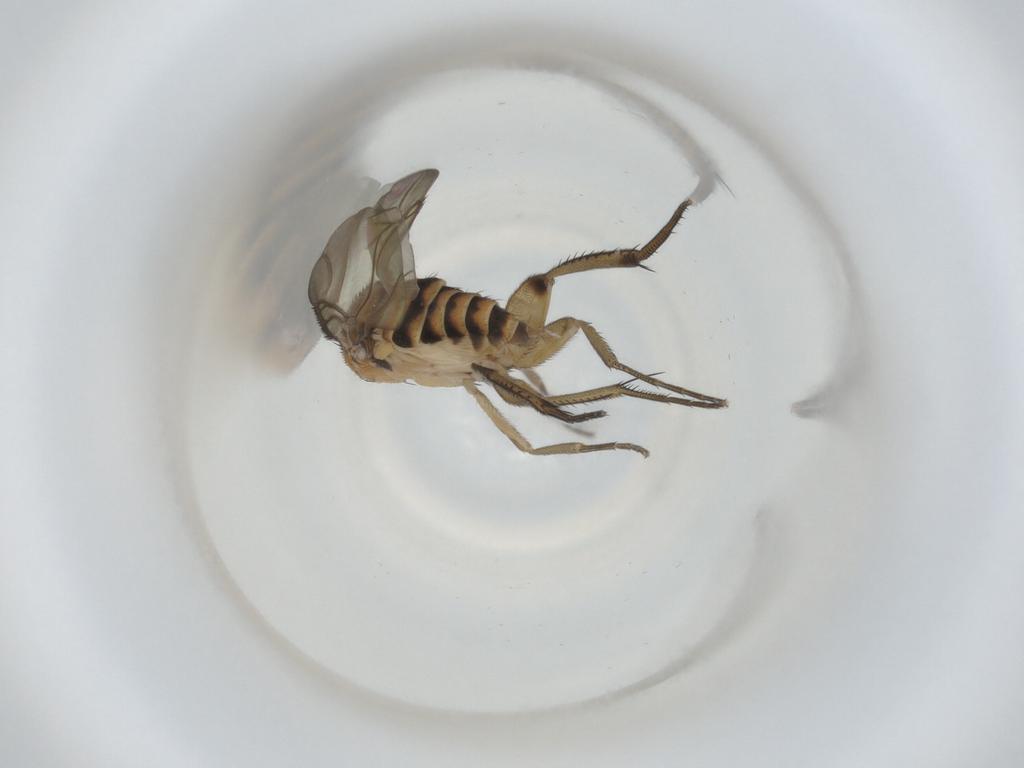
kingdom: Animalia
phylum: Arthropoda
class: Insecta
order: Diptera
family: Phoridae
